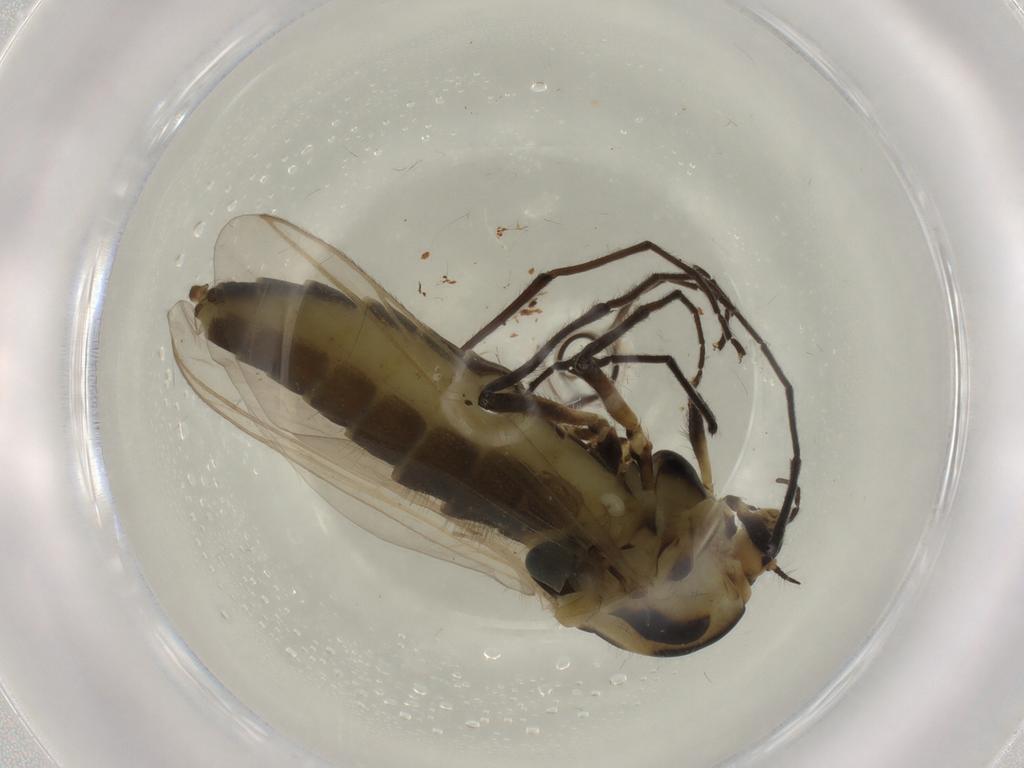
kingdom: Animalia
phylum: Arthropoda
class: Insecta
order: Diptera
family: Sciaridae
